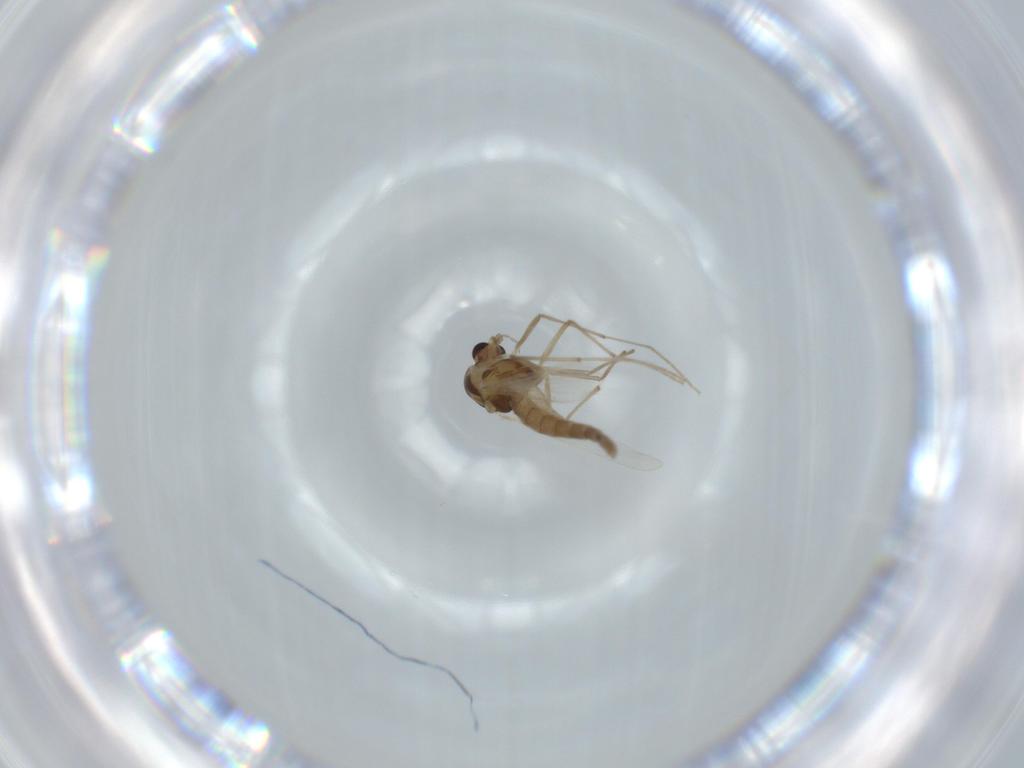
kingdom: Animalia
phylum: Arthropoda
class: Insecta
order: Diptera
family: Chironomidae
